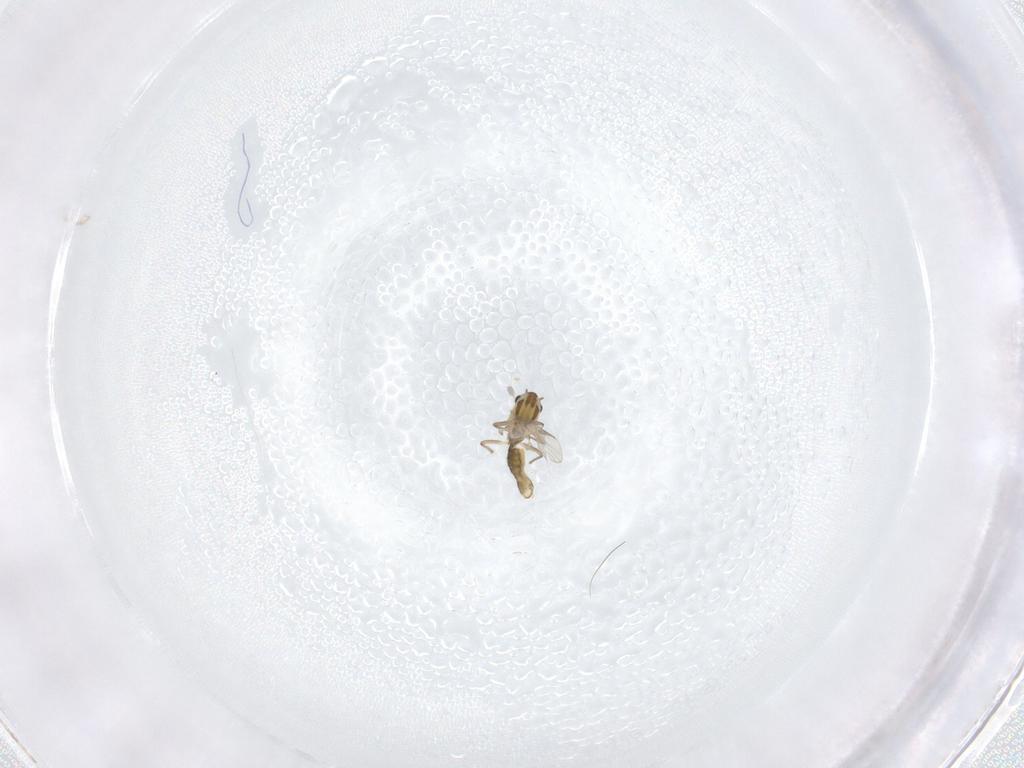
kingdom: Animalia
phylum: Arthropoda
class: Insecta
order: Diptera
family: Chironomidae
